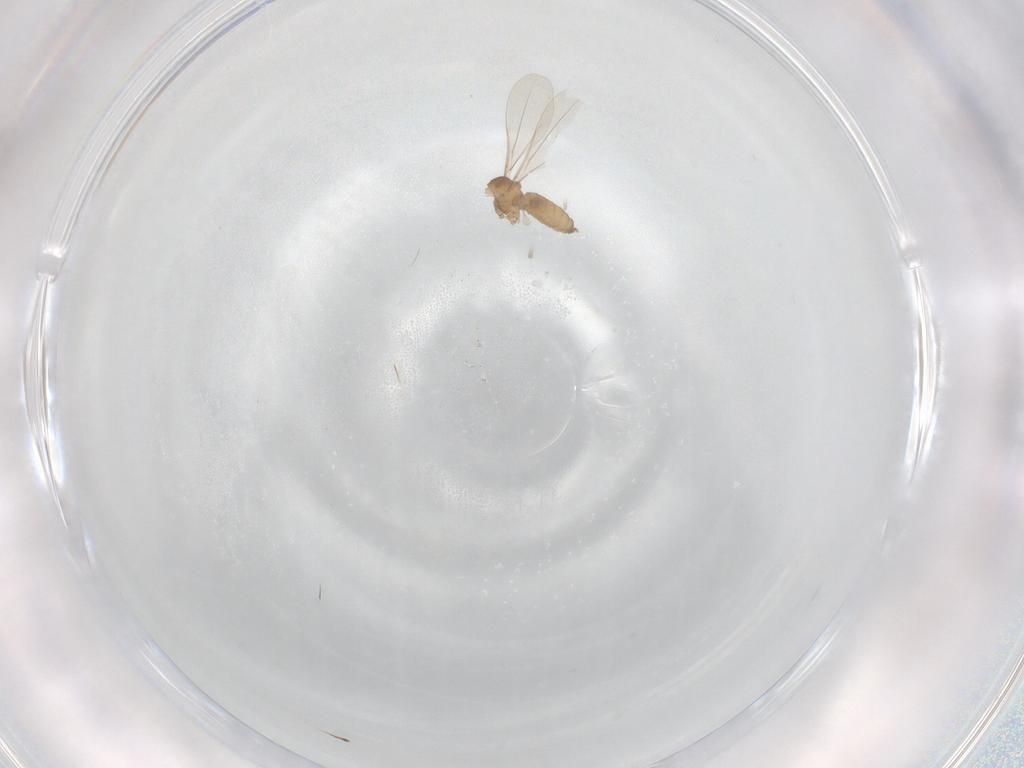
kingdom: Animalia
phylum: Arthropoda
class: Insecta
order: Diptera
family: Cecidomyiidae
